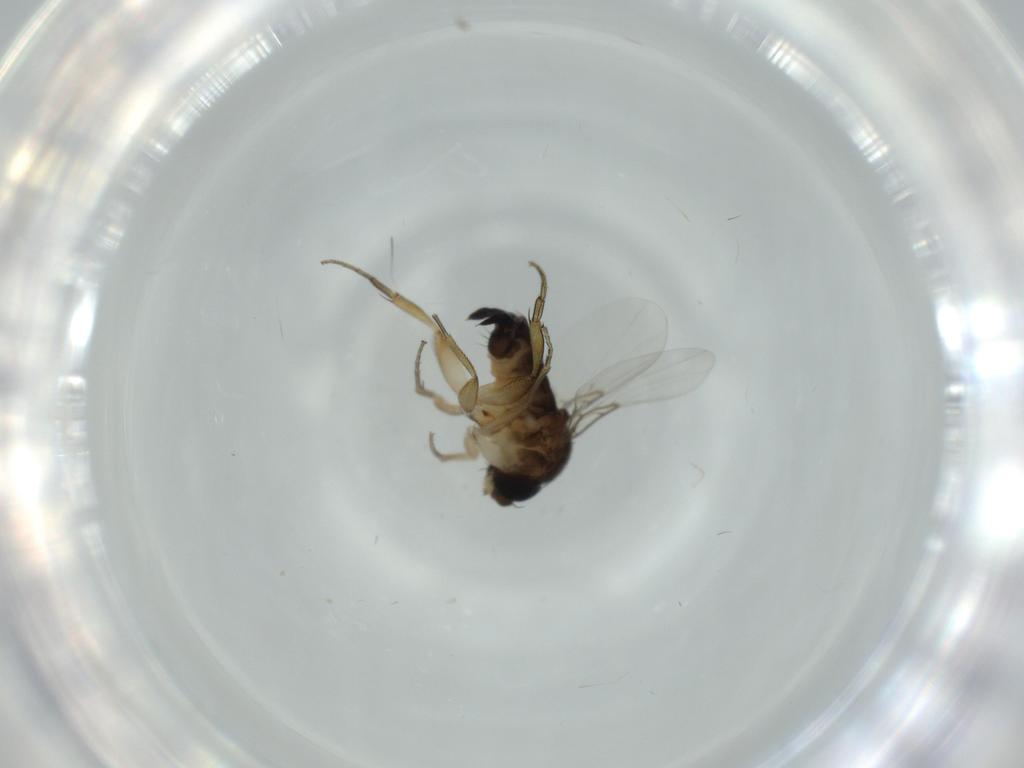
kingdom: Animalia
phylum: Arthropoda
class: Insecta
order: Diptera
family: Phoridae
